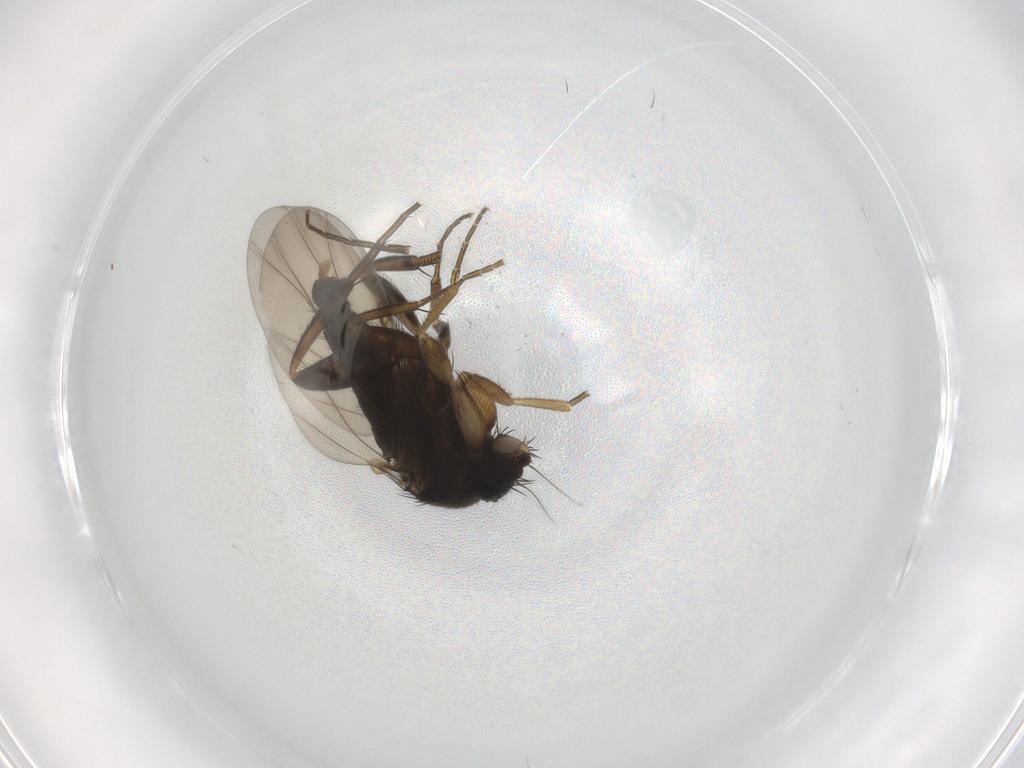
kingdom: Animalia
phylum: Arthropoda
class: Insecta
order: Diptera
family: Phoridae
